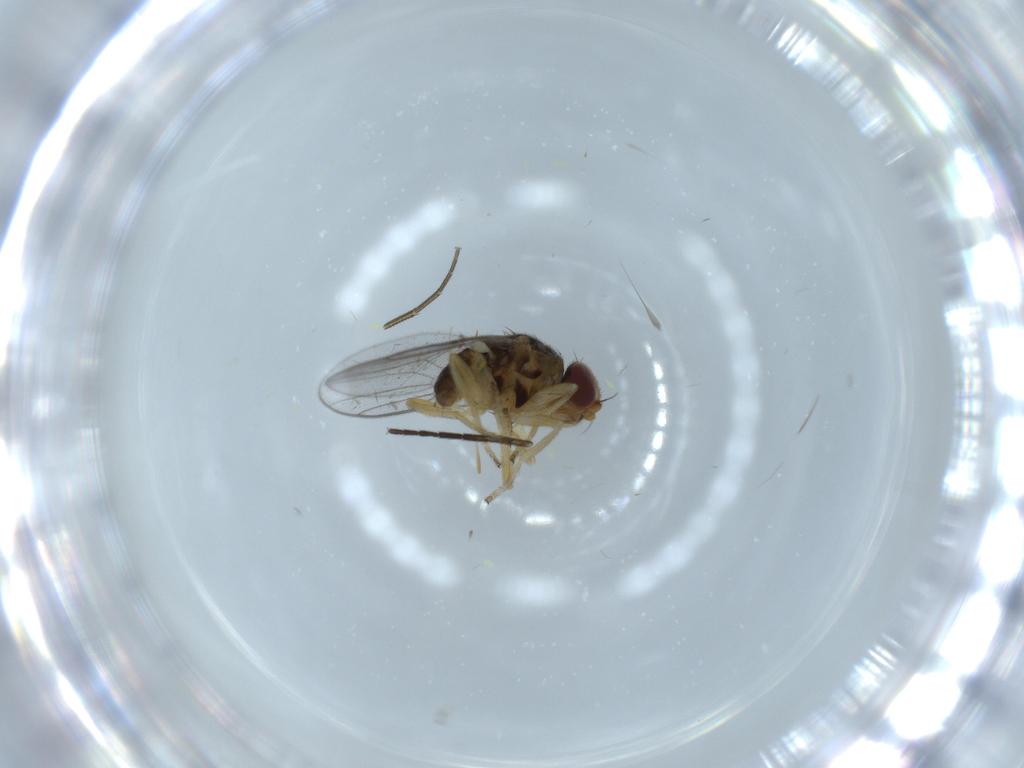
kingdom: Animalia
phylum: Arthropoda
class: Insecta
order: Diptera
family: Sciaridae
